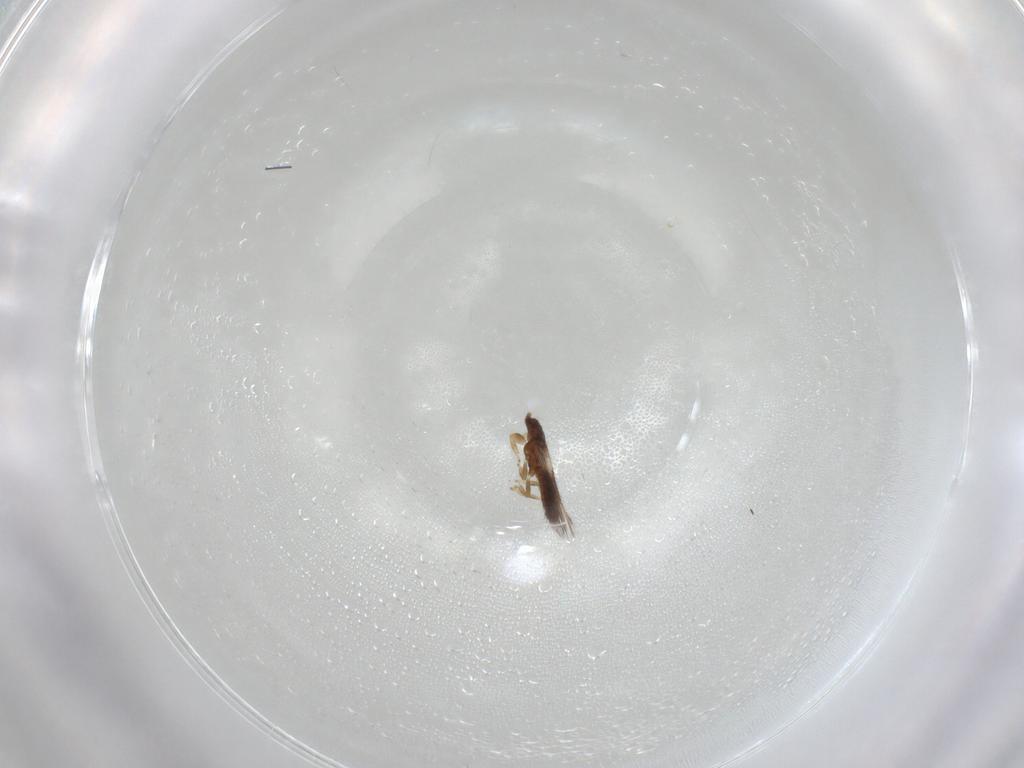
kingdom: Animalia
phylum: Arthropoda
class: Insecta
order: Thysanoptera
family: Thripidae
